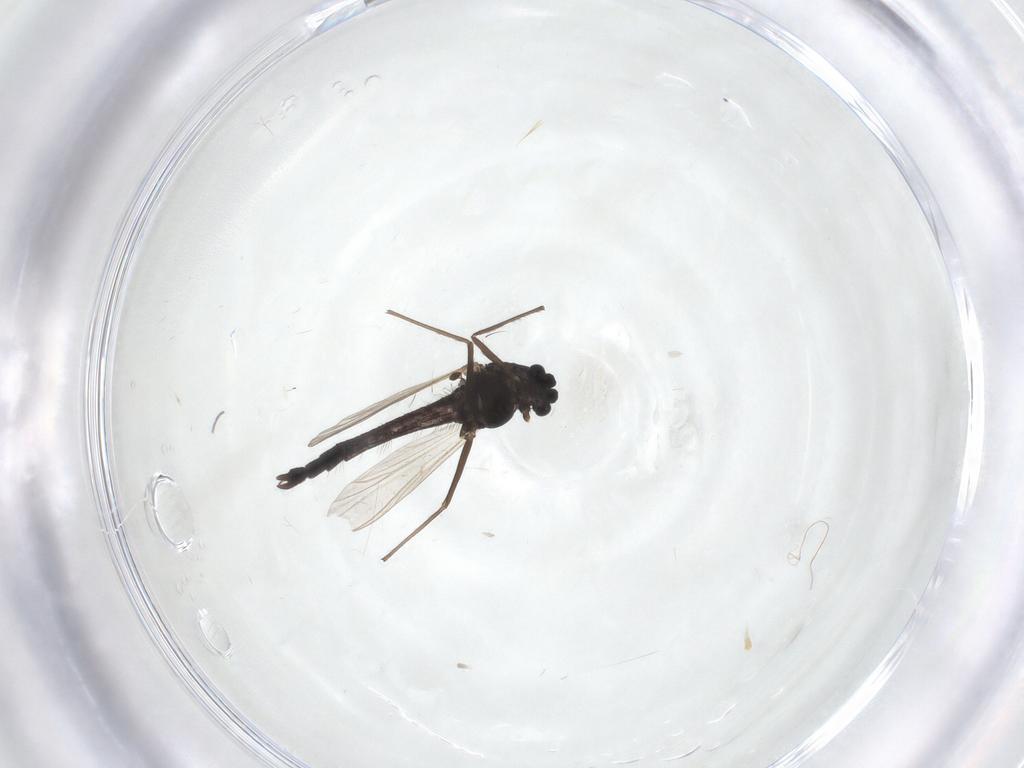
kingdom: Animalia
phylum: Arthropoda
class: Insecta
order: Diptera
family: Chironomidae
